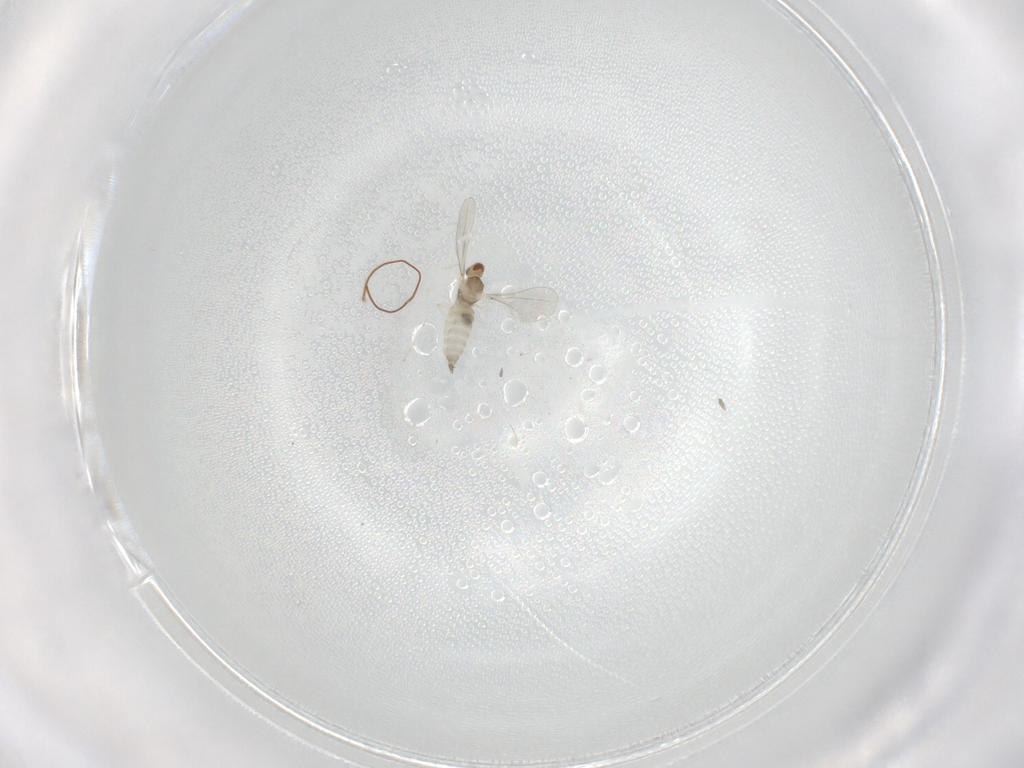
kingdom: Animalia
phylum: Arthropoda
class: Insecta
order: Diptera
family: Cecidomyiidae
